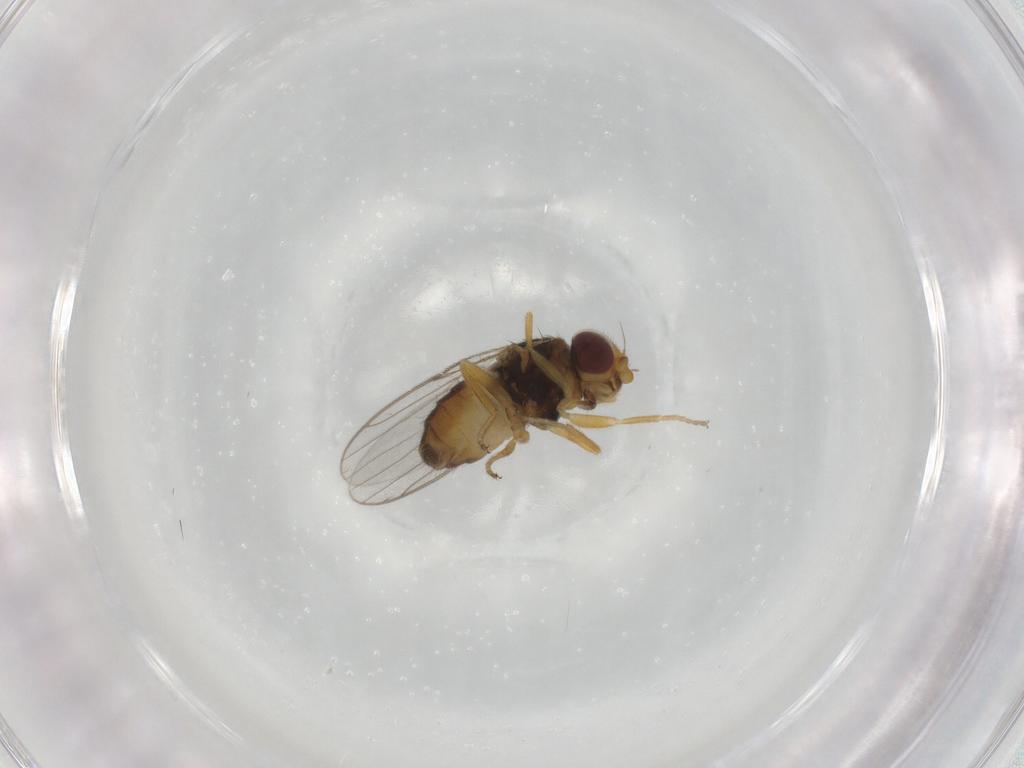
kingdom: Animalia
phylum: Arthropoda
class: Insecta
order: Diptera
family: Chloropidae
